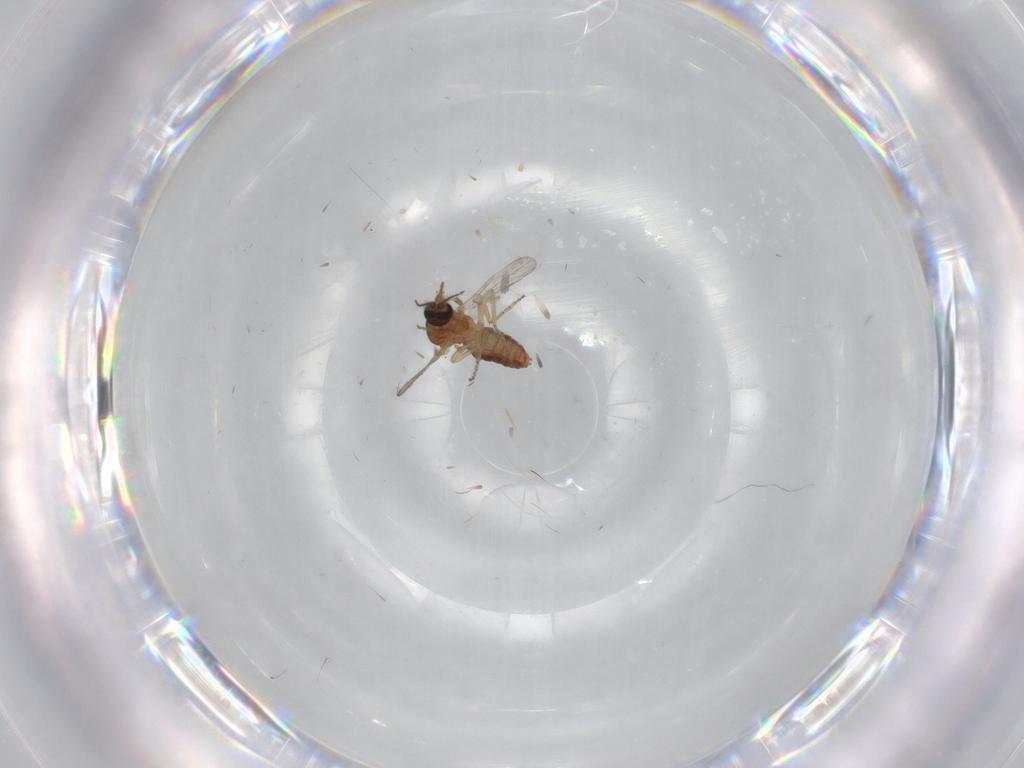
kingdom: Animalia
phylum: Arthropoda
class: Insecta
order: Diptera
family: Ceratopogonidae
